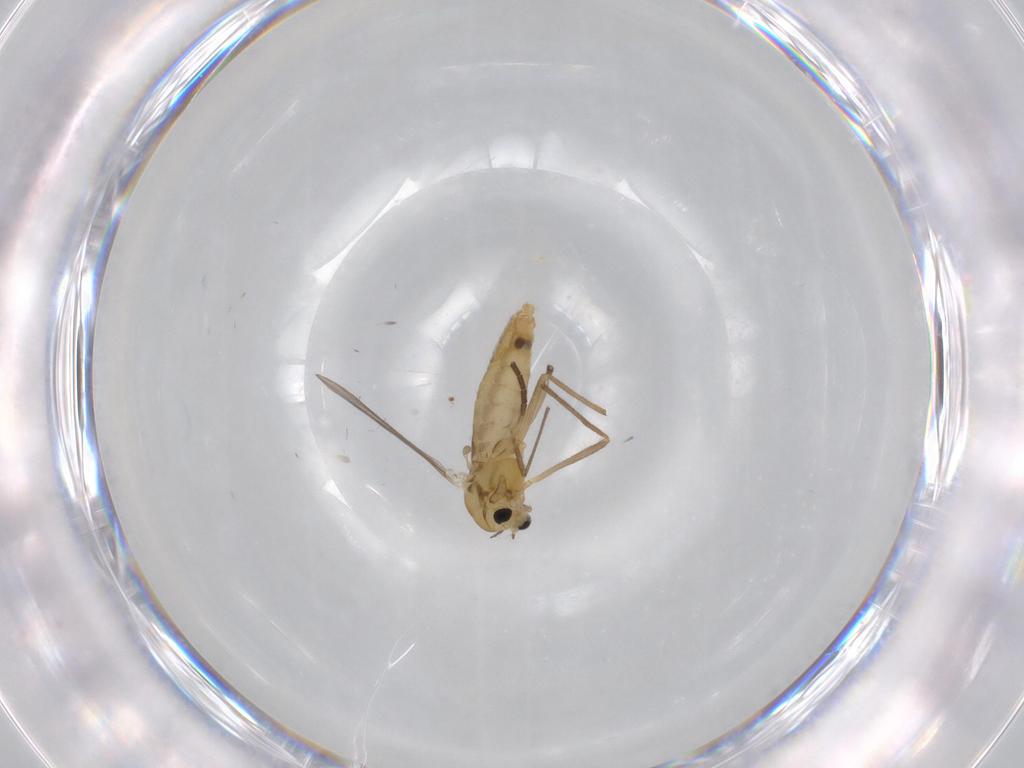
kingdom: Animalia
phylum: Arthropoda
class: Insecta
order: Diptera
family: Sciaridae
